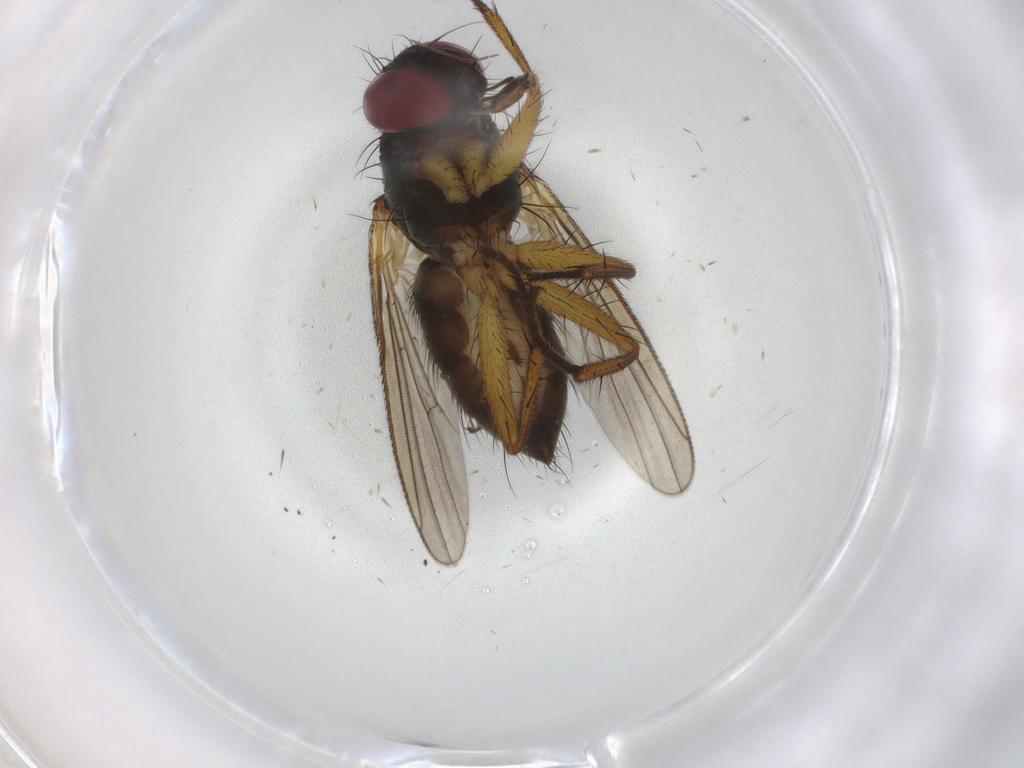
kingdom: Animalia
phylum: Arthropoda
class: Insecta
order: Diptera
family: Muscidae
